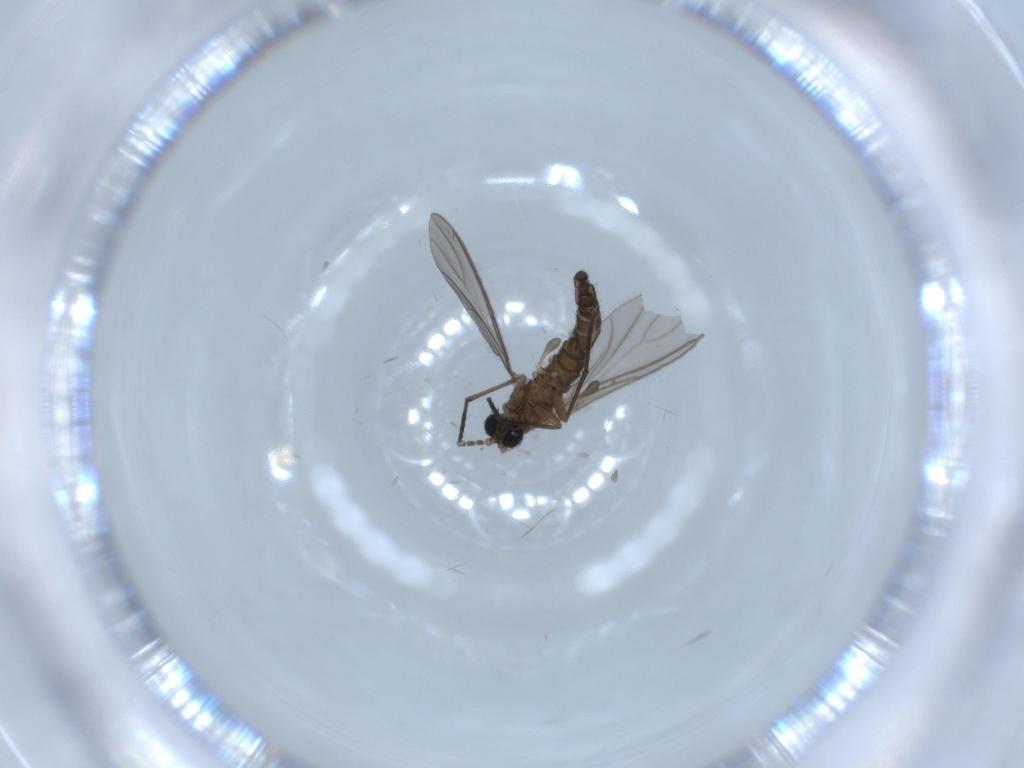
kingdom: Animalia
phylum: Arthropoda
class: Insecta
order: Diptera
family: Sciaridae
